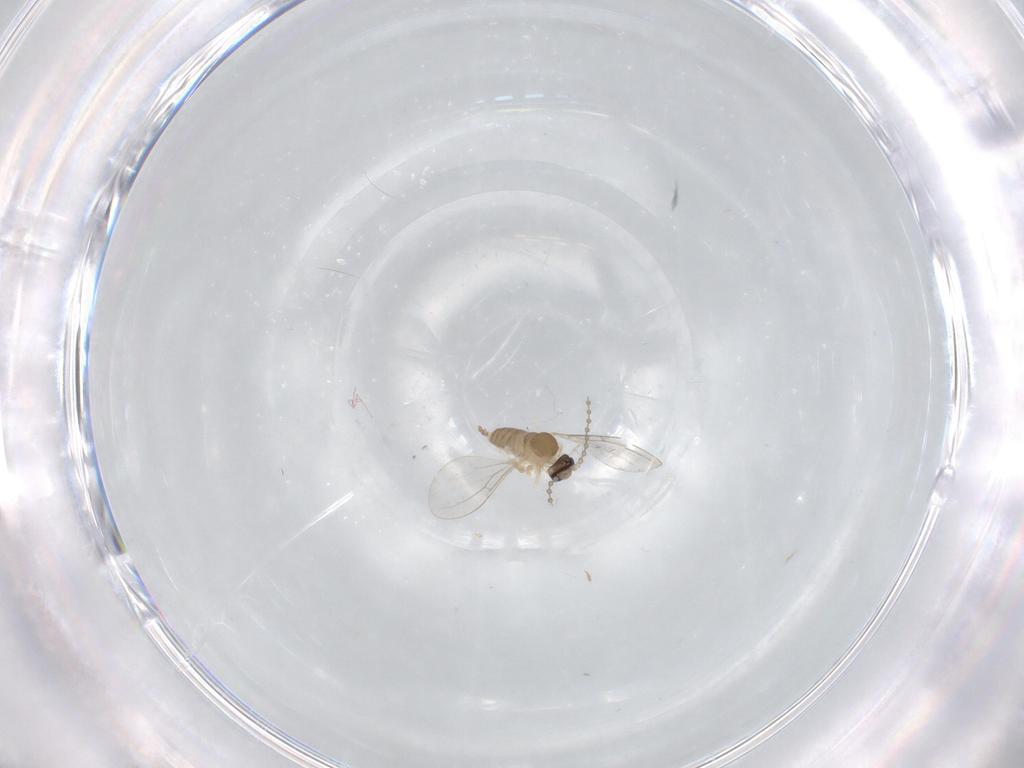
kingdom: Animalia
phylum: Arthropoda
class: Insecta
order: Diptera
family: Cecidomyiidae
